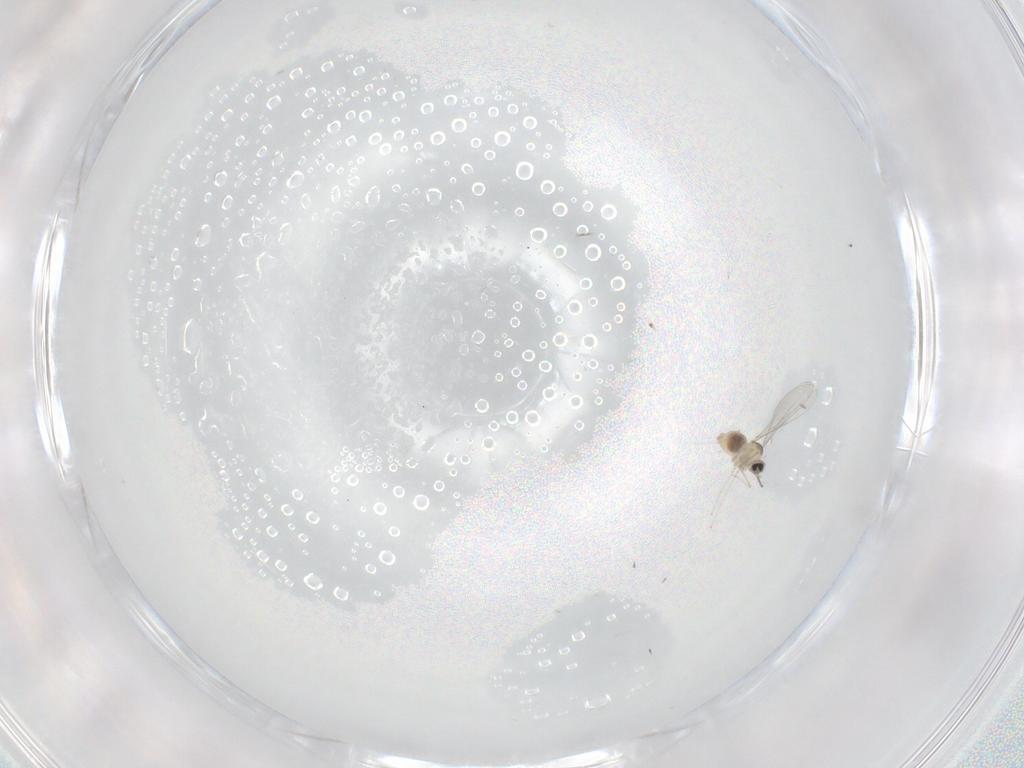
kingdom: Animalia
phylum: Arthropoda
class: Insecta
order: Diptera
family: Cecidomyiidae
